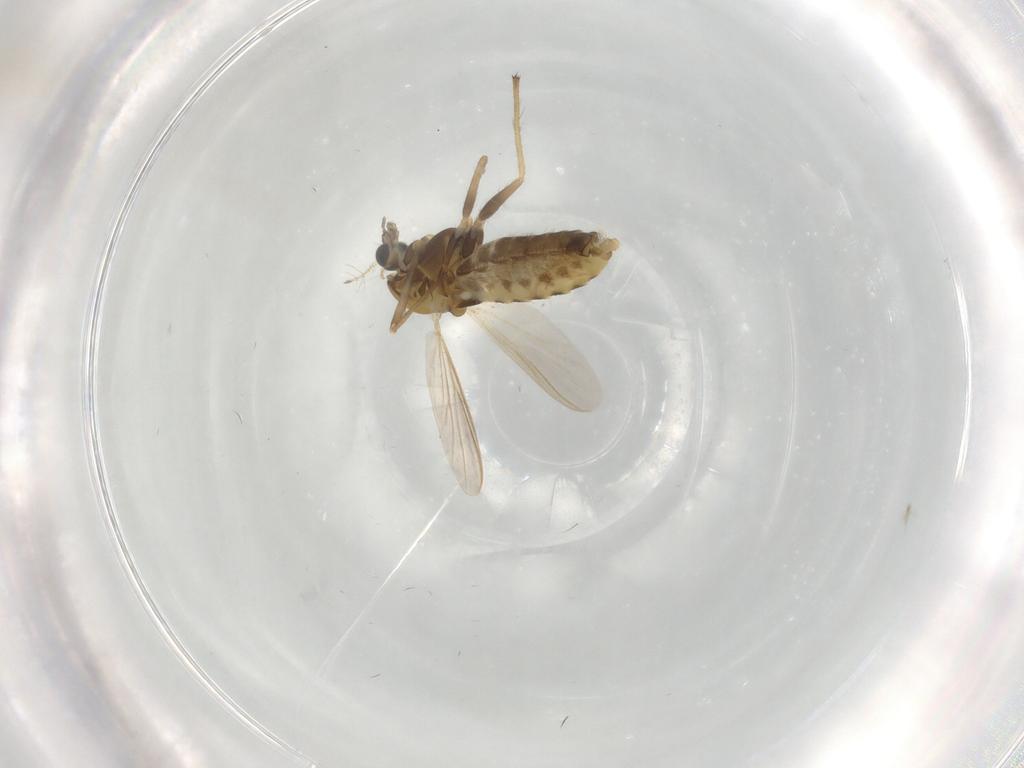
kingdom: Animalia
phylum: Arthropoda
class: Insecta
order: Diptera
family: Chironomidae
